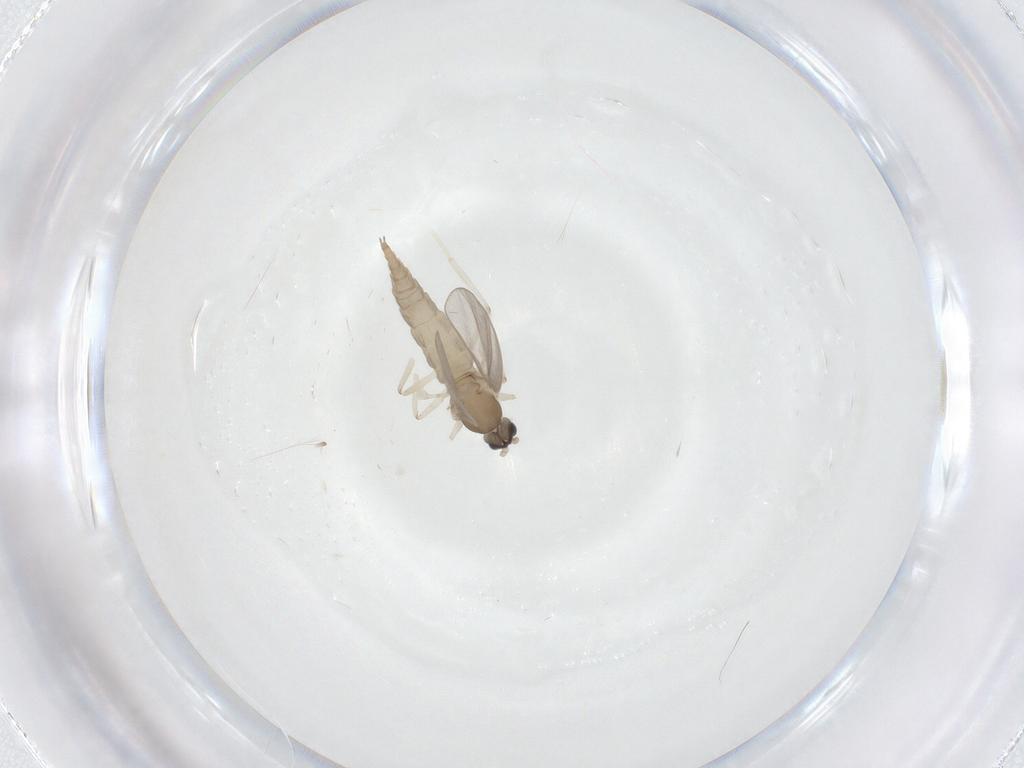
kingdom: Animalia
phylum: Arthropoda
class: Insecta
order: Diptera
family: Cecidomyiidae
